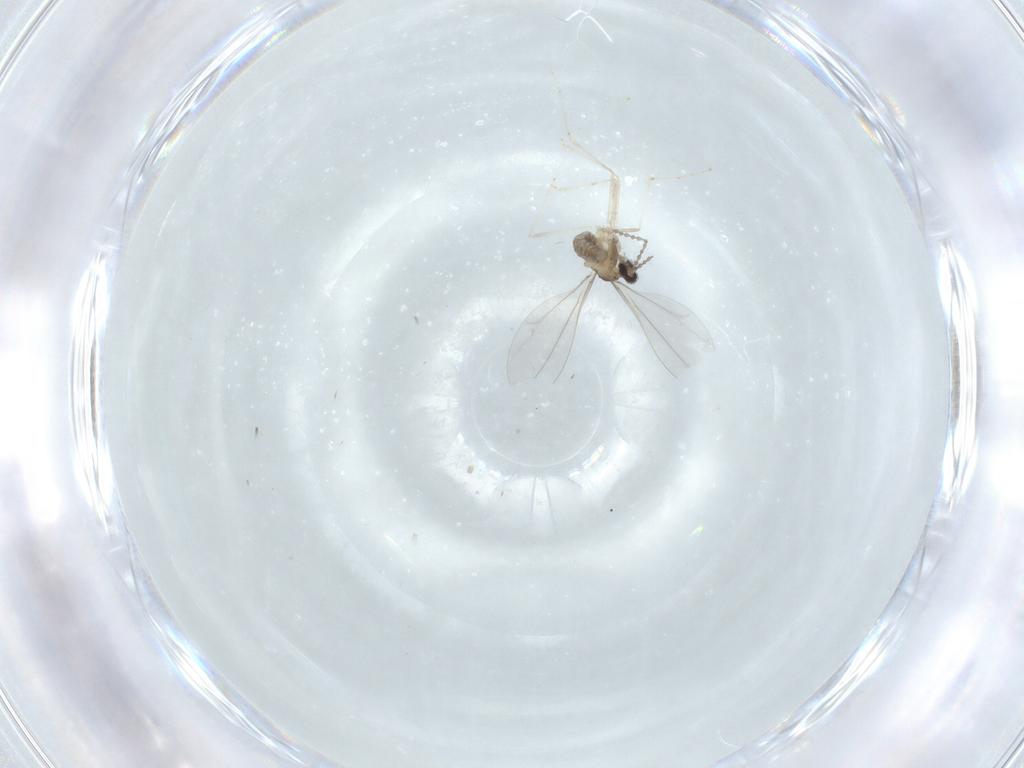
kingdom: Animalia
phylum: Arthropoda
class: Insecta
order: Diptera
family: Cecidomyiidae
